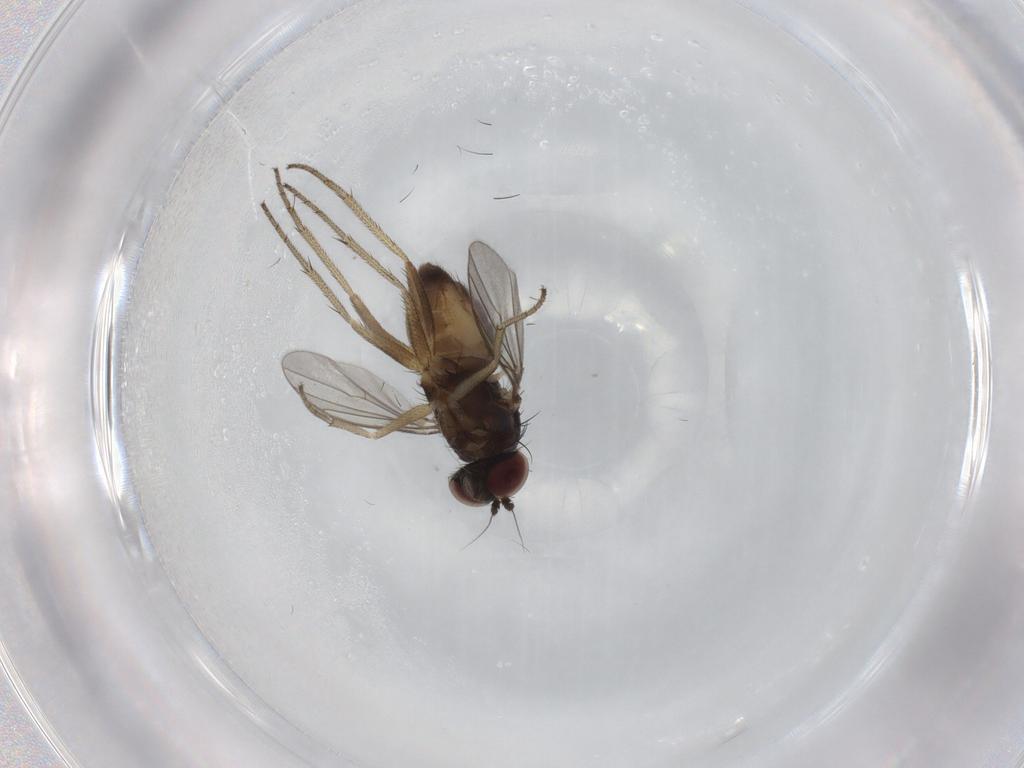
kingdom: Animalia
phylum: Arthropoda
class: Insecta
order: Diptera
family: Dolichopodidae
